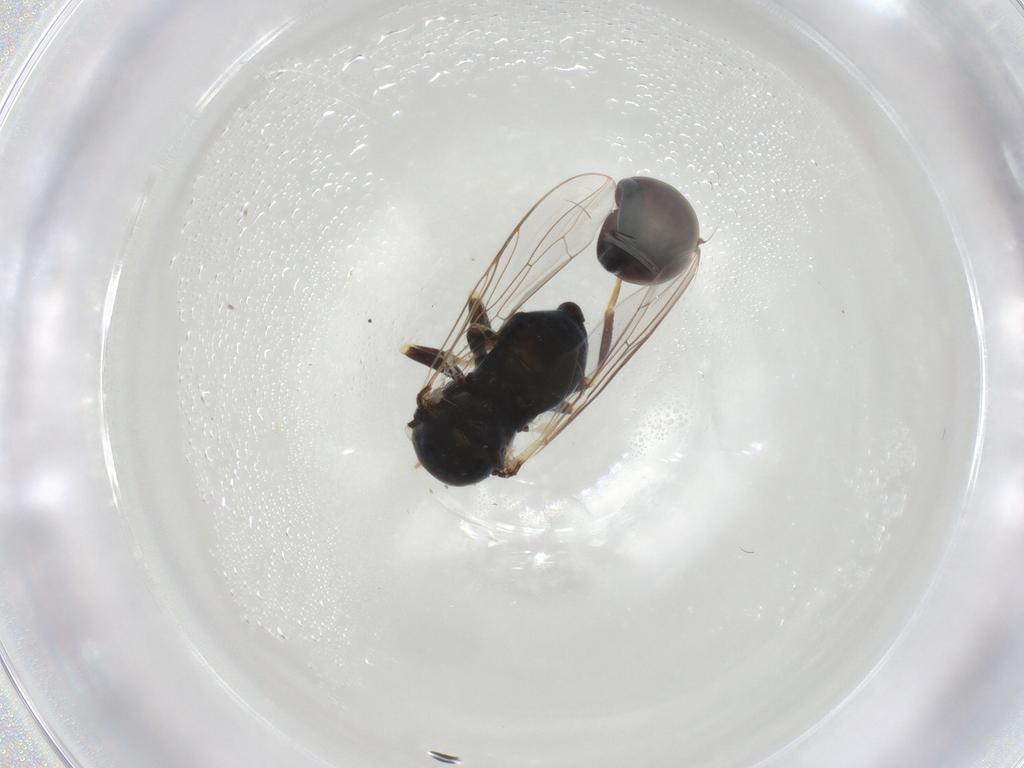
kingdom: Animalia
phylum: Arthropoda
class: Insecta
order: Diptera
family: Pipunculidae
